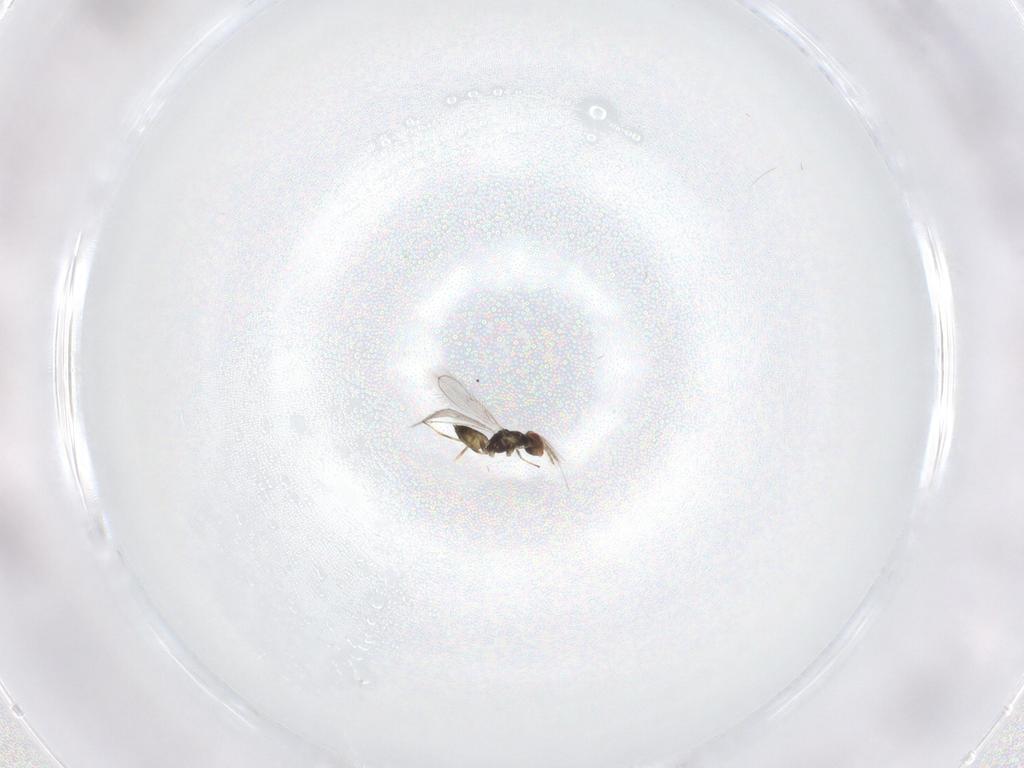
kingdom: Animalia
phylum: Arthropoda
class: Insecta
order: Hymenoptera
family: Eulophidae
